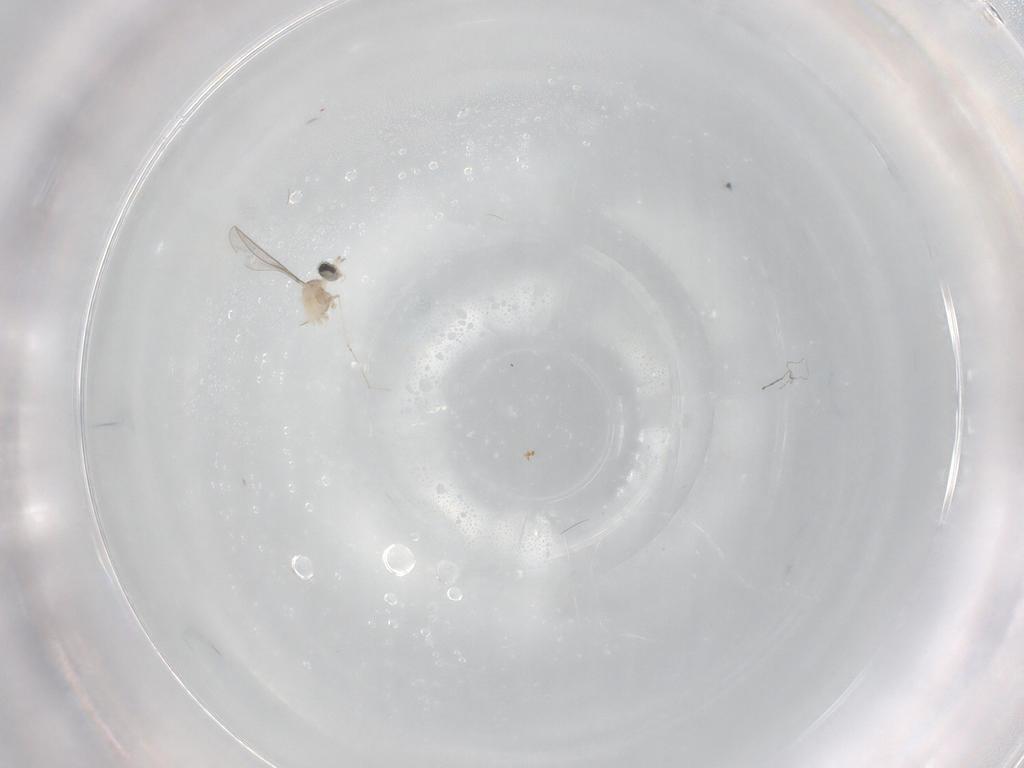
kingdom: Animalia
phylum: Arthropoda
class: Insecta
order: Diptera
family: Cecidomyiidae
